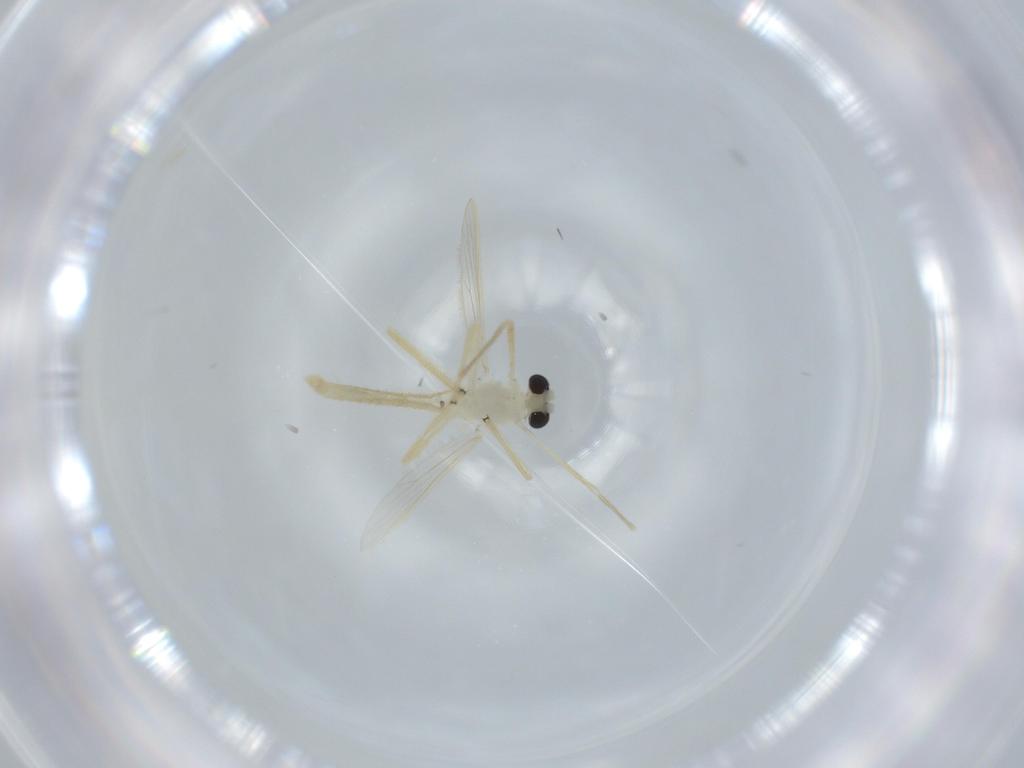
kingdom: Animalia
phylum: Arthropoda
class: Insecta
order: Diptera
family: Chironomidae
